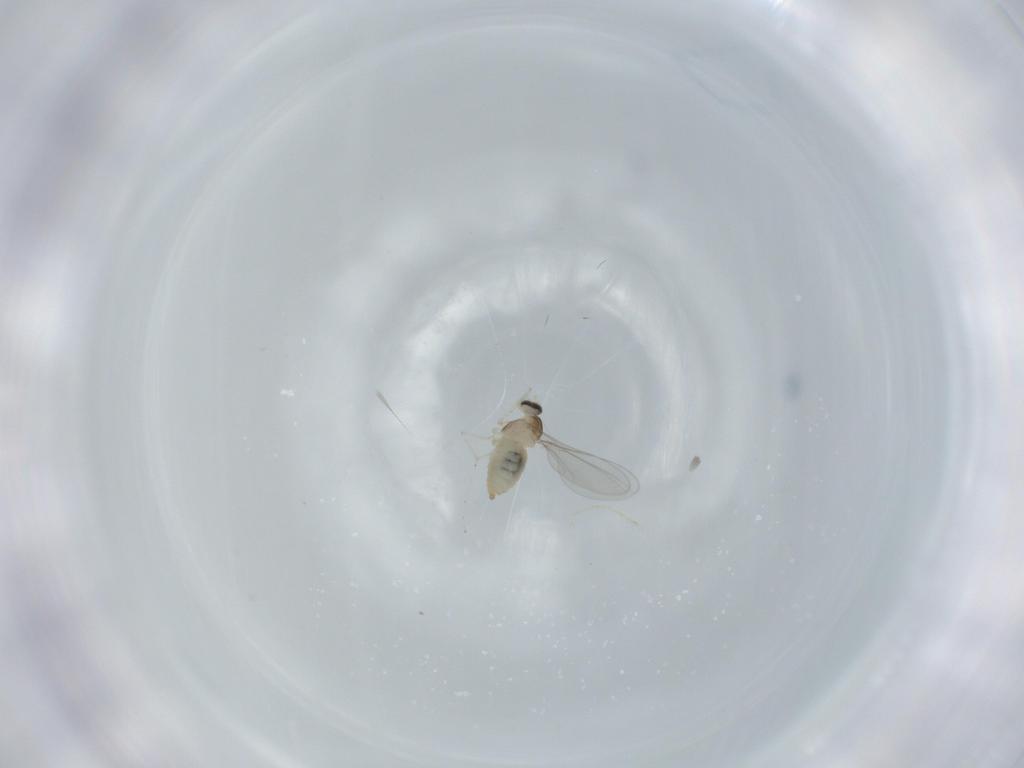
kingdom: Animalia
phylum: Arthropoda
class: Insecta
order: Diptera
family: Cecidomyiidae
